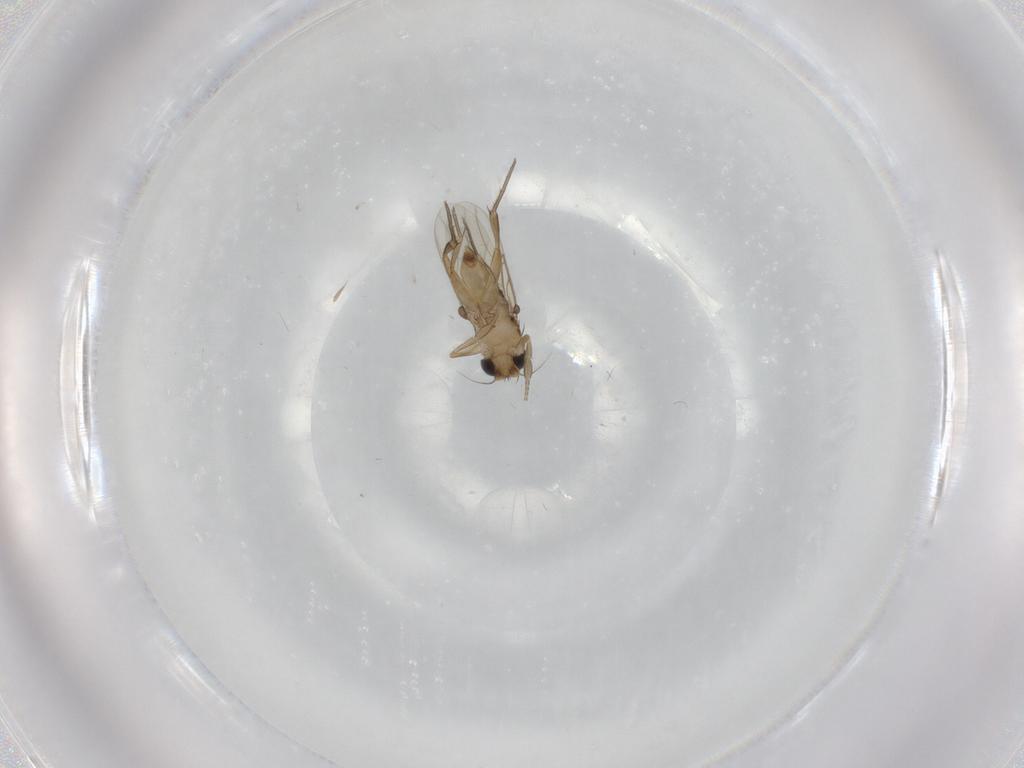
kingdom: Animalia
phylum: Arthropoda
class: Insecta
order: Diptera
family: Phoridae
